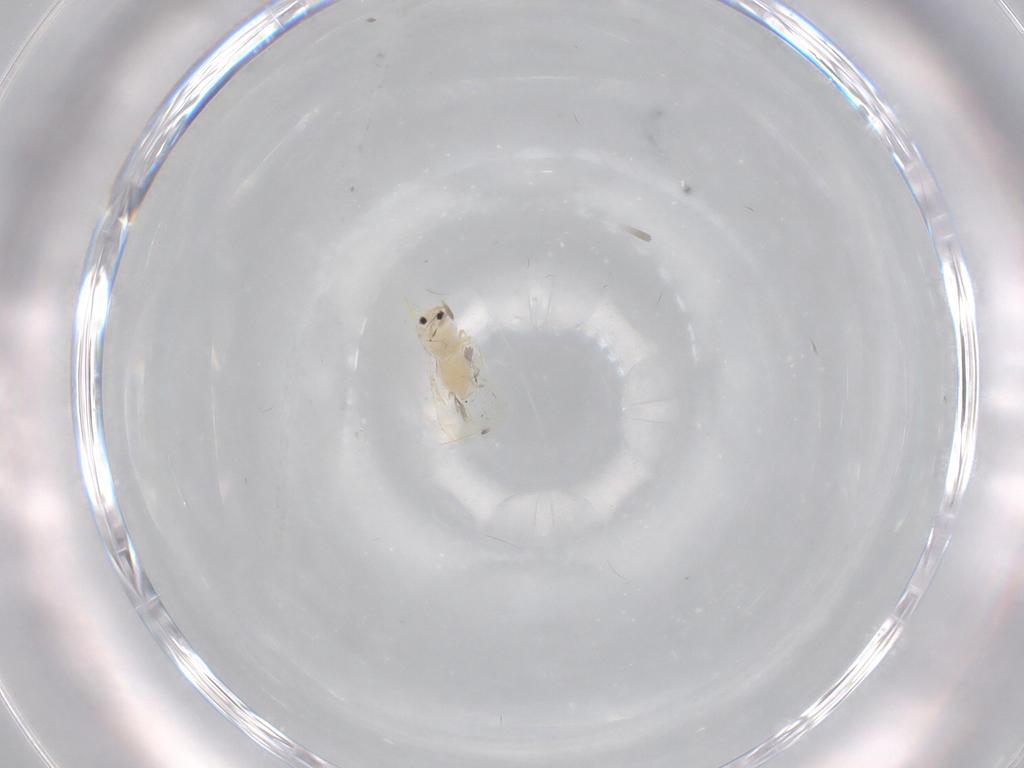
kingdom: Animalia
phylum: Arthropoda
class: Insecta
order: Hemiptera
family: Aleyrodidae
